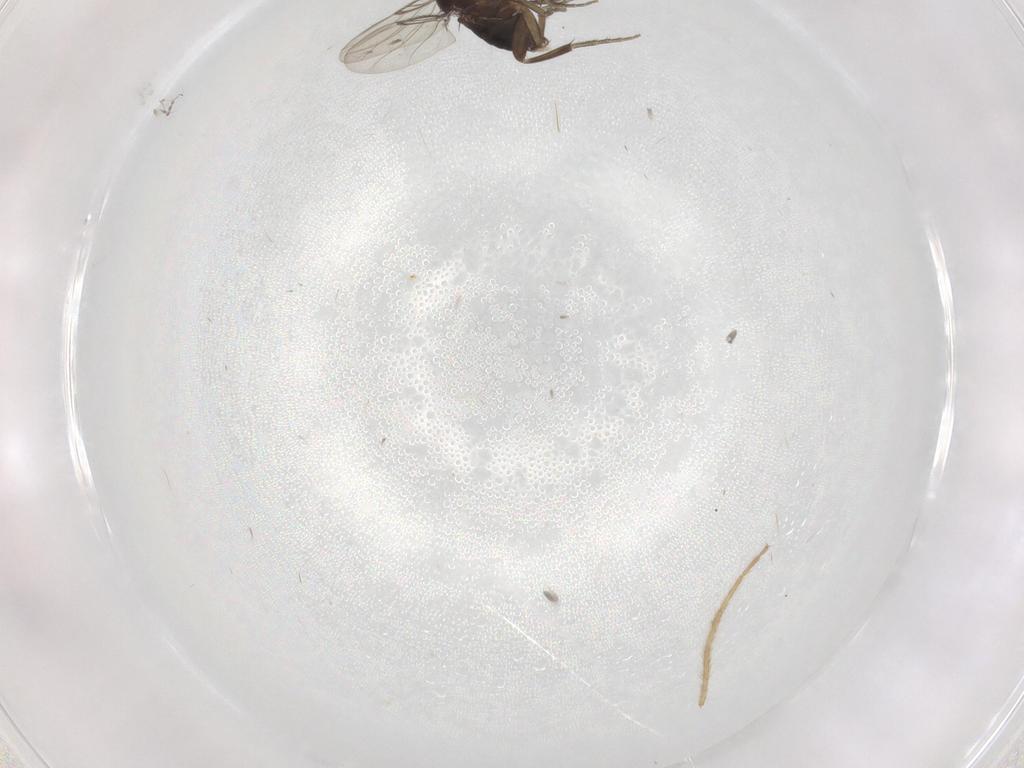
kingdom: Animalia
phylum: Arthropoda
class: Insecta
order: Diptera
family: Phoridae
